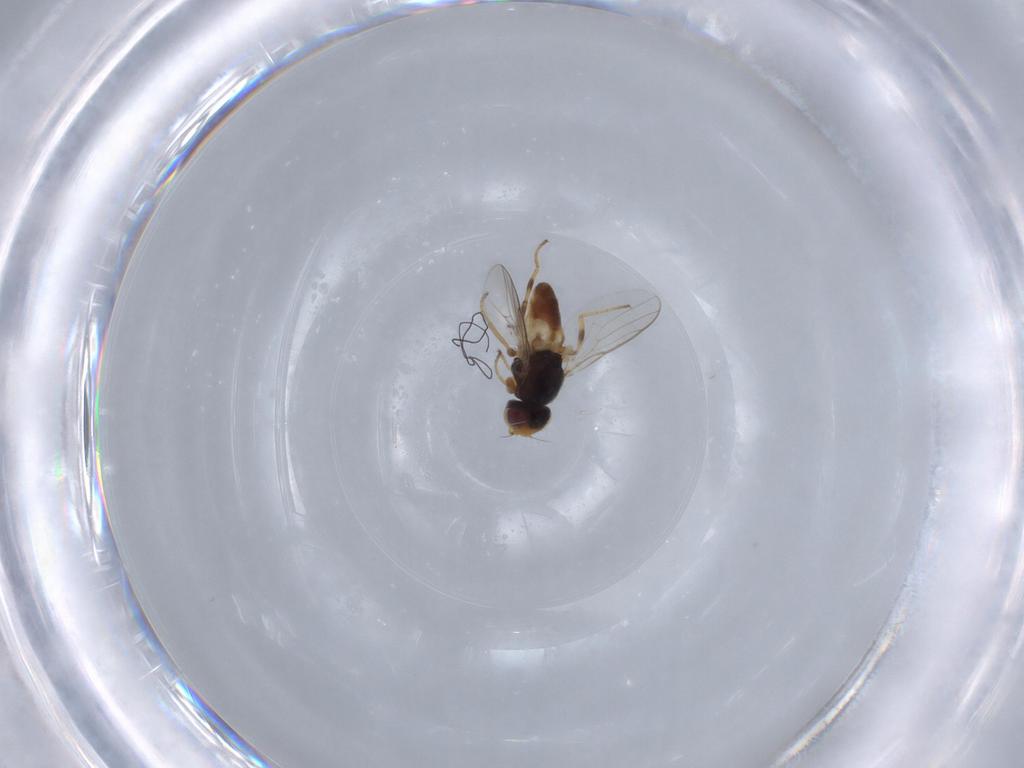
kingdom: Animalia
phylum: Arthropoda
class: Insecta
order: Diptera
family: Chloropidae
